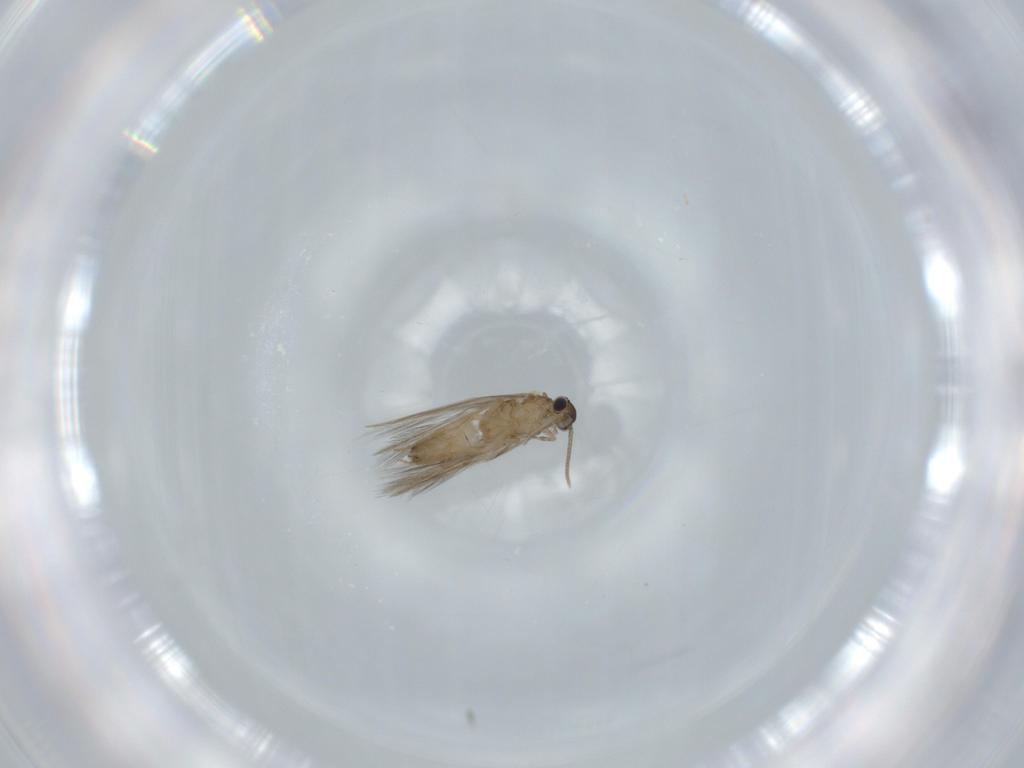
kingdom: Animalia
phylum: Arthropoda
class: Insecta
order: Trichoptera
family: Hydroptilidae
